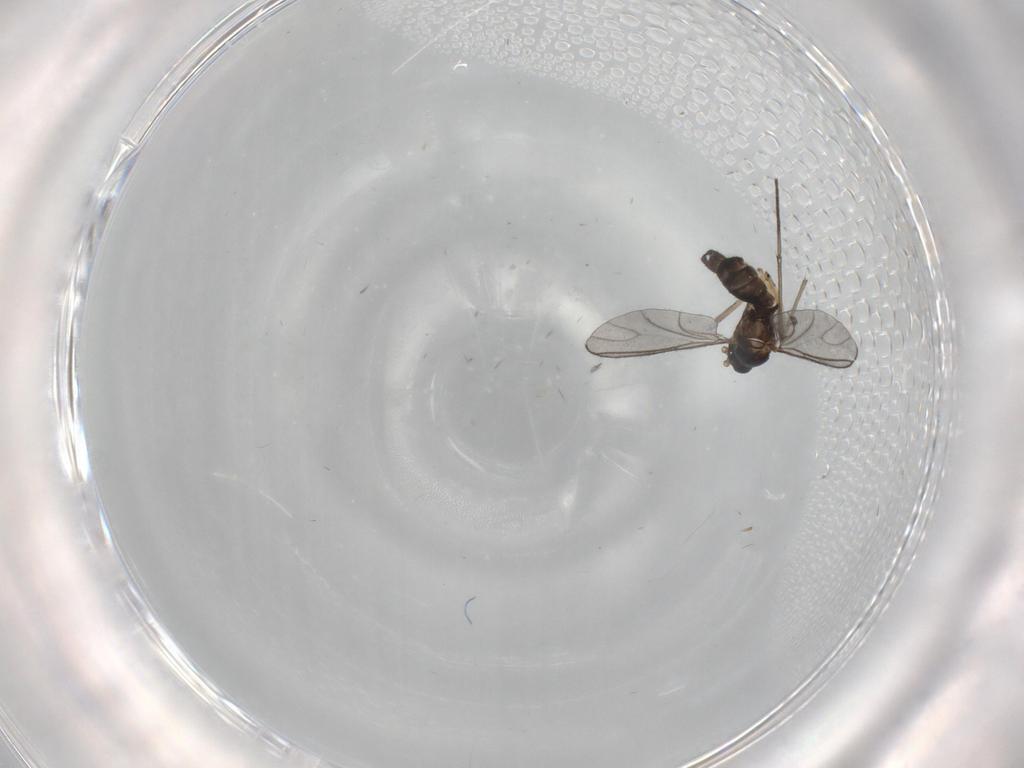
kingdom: Animalia
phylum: Arthropoda
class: Insecta
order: Diptera
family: Sciaridae
